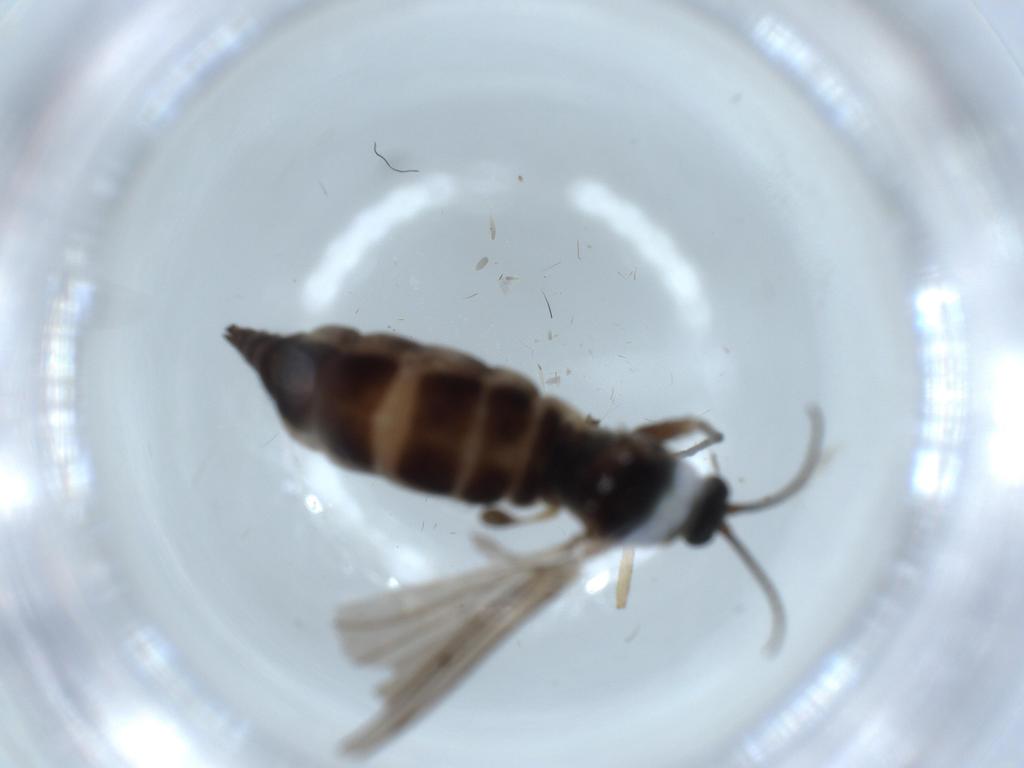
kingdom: Animalia
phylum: Arthropoda
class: Insecta
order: Diptera
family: Sciaridae
